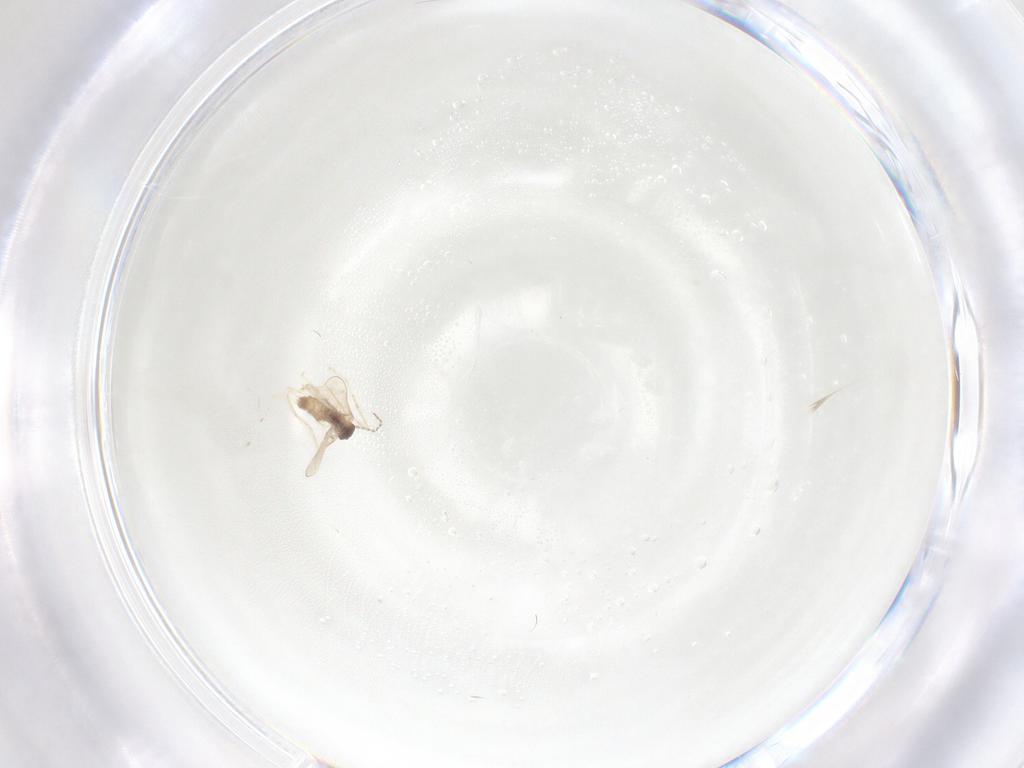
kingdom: Animalia
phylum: Arthropoda
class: Insecta
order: Diptera
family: Cecidomyiidae
